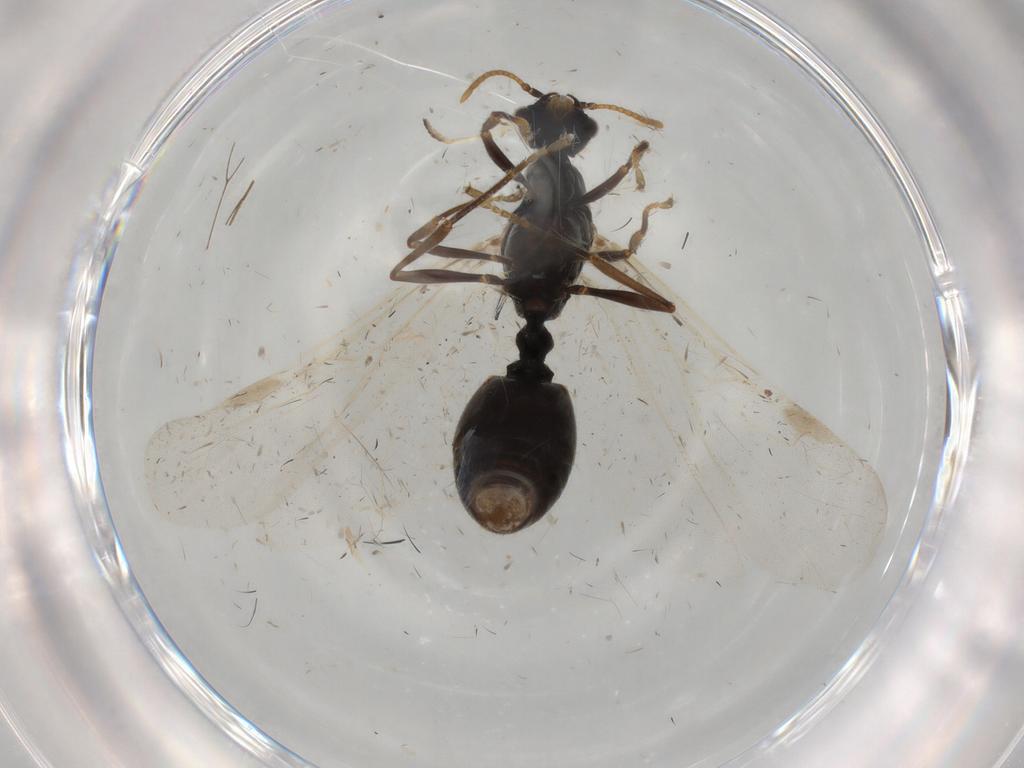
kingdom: Animalia
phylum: Arthropoda
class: Insecta
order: Hymenoptera
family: Formicidae
